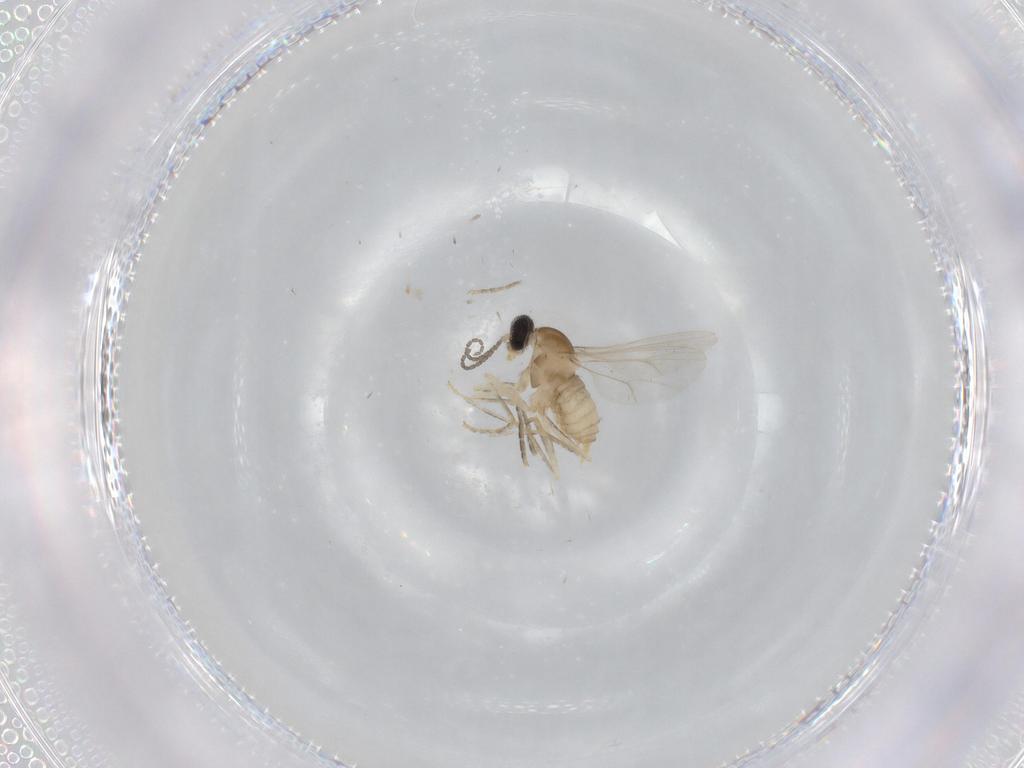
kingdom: Animalia
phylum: Arthropoda
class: Insecta
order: Diptera
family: Cecidomyiidae
